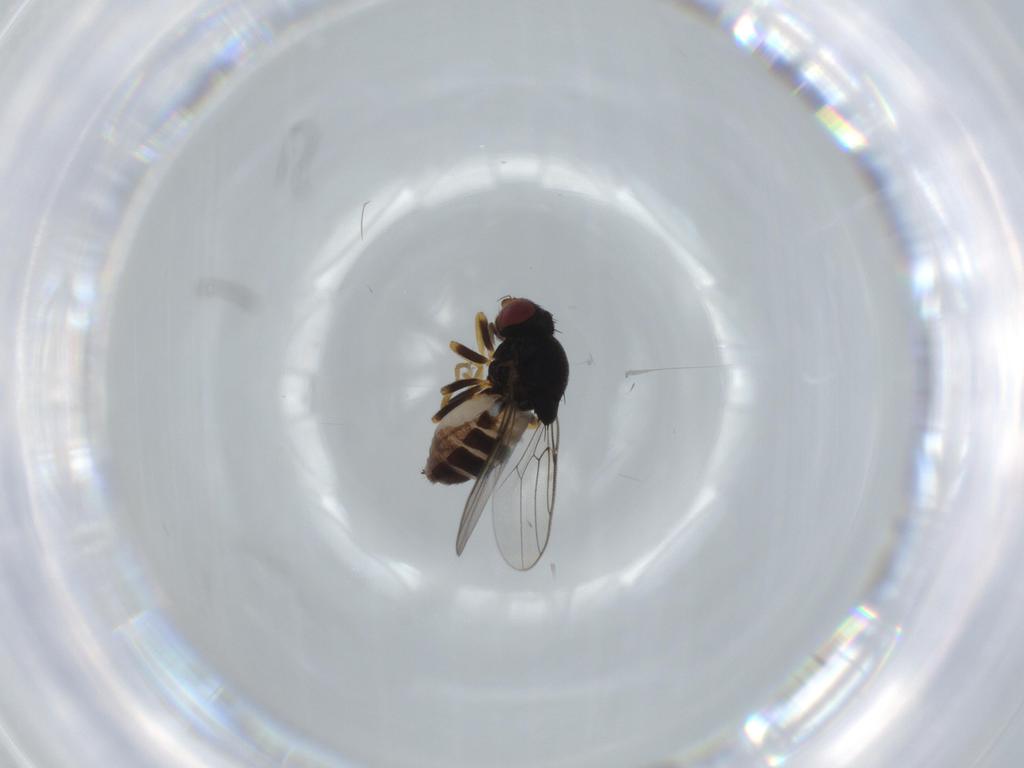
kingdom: Animalia
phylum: Arthropoda
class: Insecta
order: Diptera
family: Chloropidae
